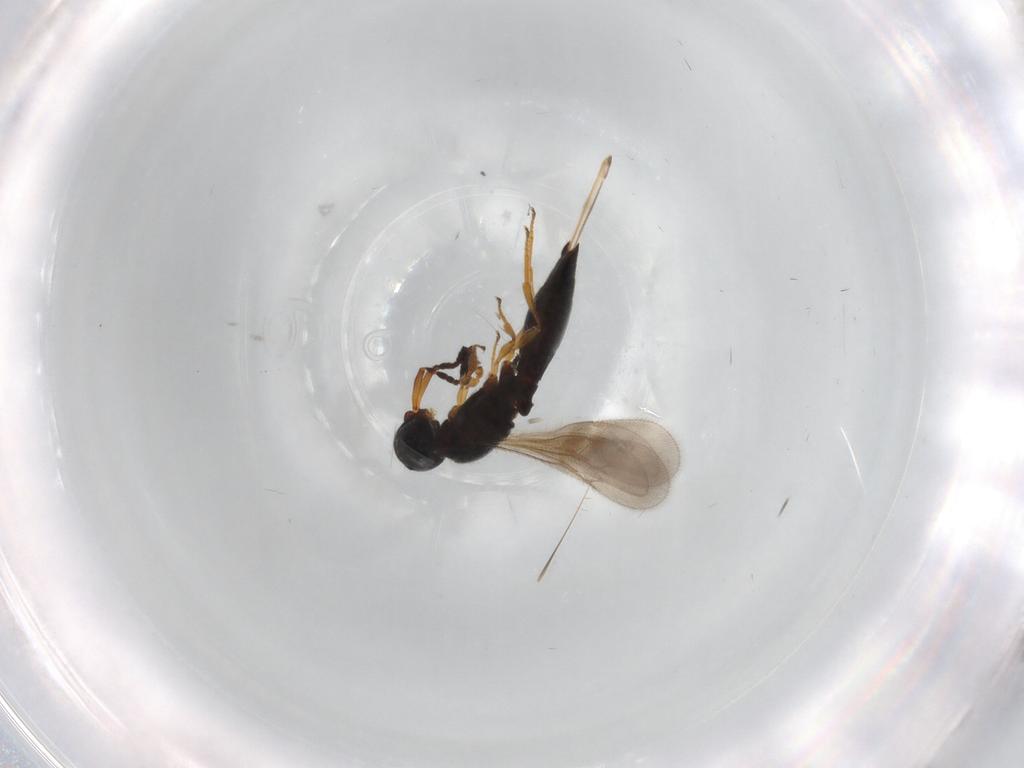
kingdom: Animalia
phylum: Arthropoda
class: Insecta
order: Hymenoptera
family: Scelionidae
